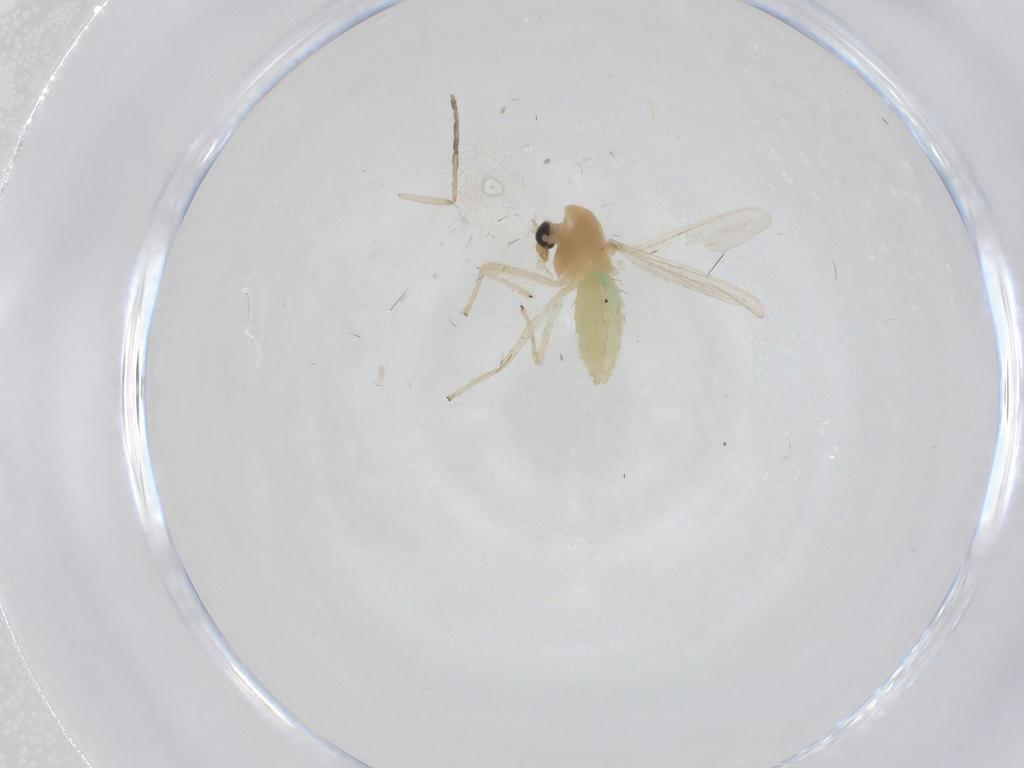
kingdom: Animalia
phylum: Arthropoda
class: Insecta
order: Diptera
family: Chironomidae
